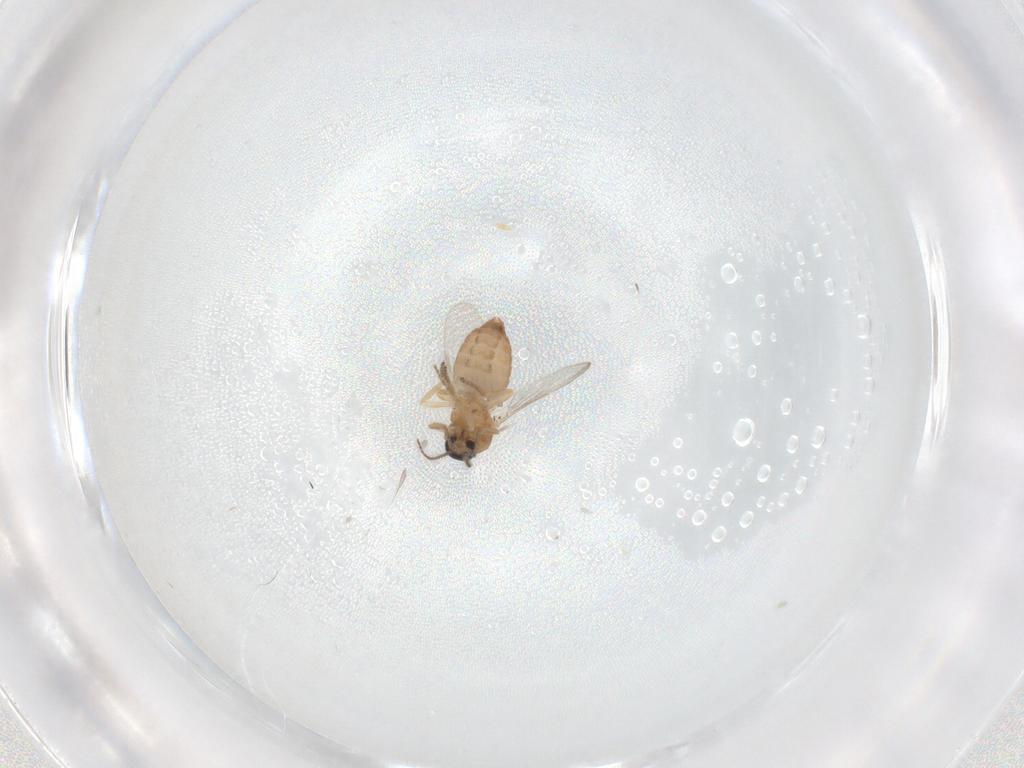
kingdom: Animalia
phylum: Arthropoda
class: Insecta
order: Diptera
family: Ceratopogonidae
